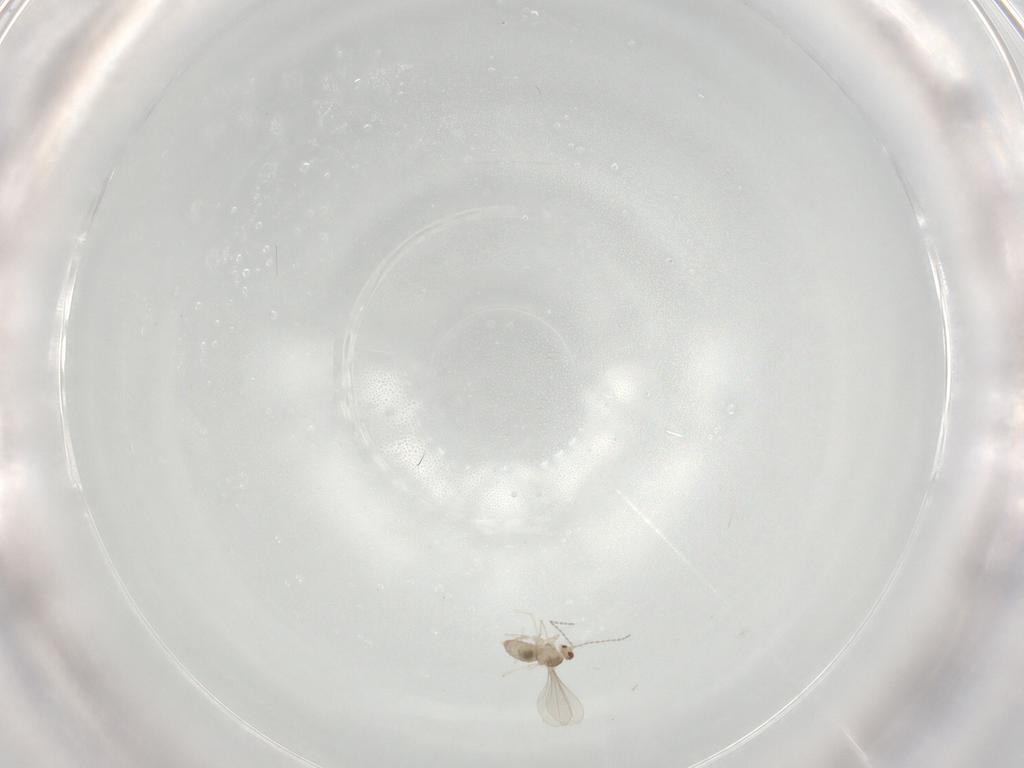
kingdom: Animalia
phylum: Arthropoda
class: Insecta
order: Diptera
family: Cecidomyiidae
